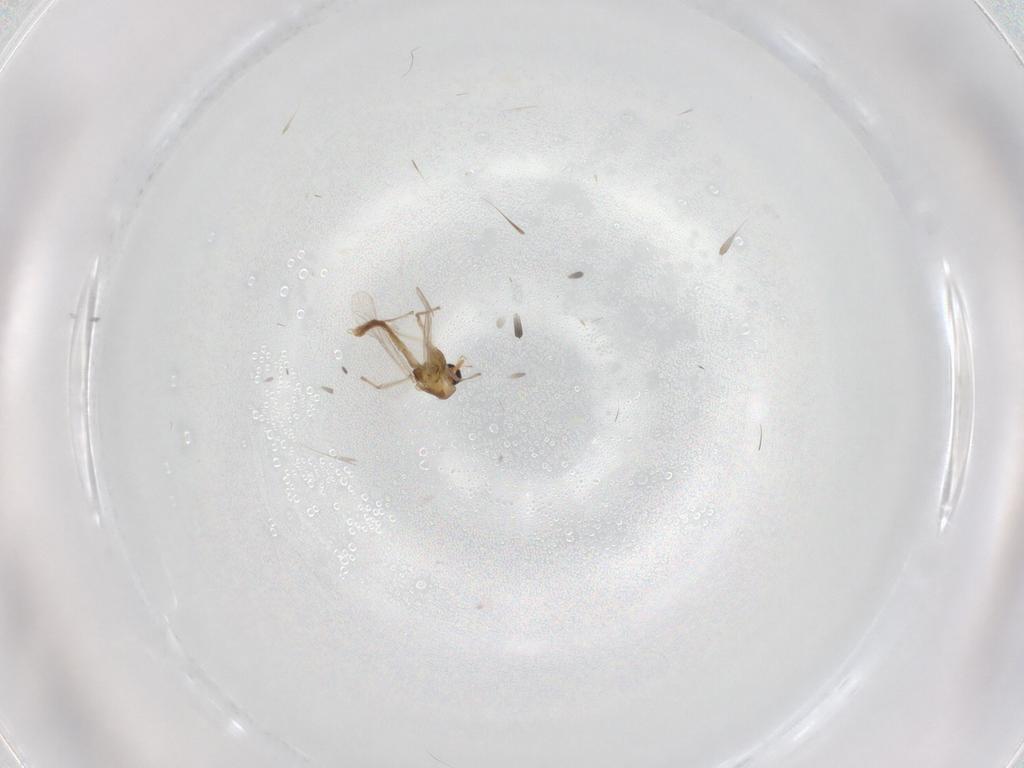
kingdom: Animalia
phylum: Arthropoda
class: Insecta
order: Diptera
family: Chironomidae
